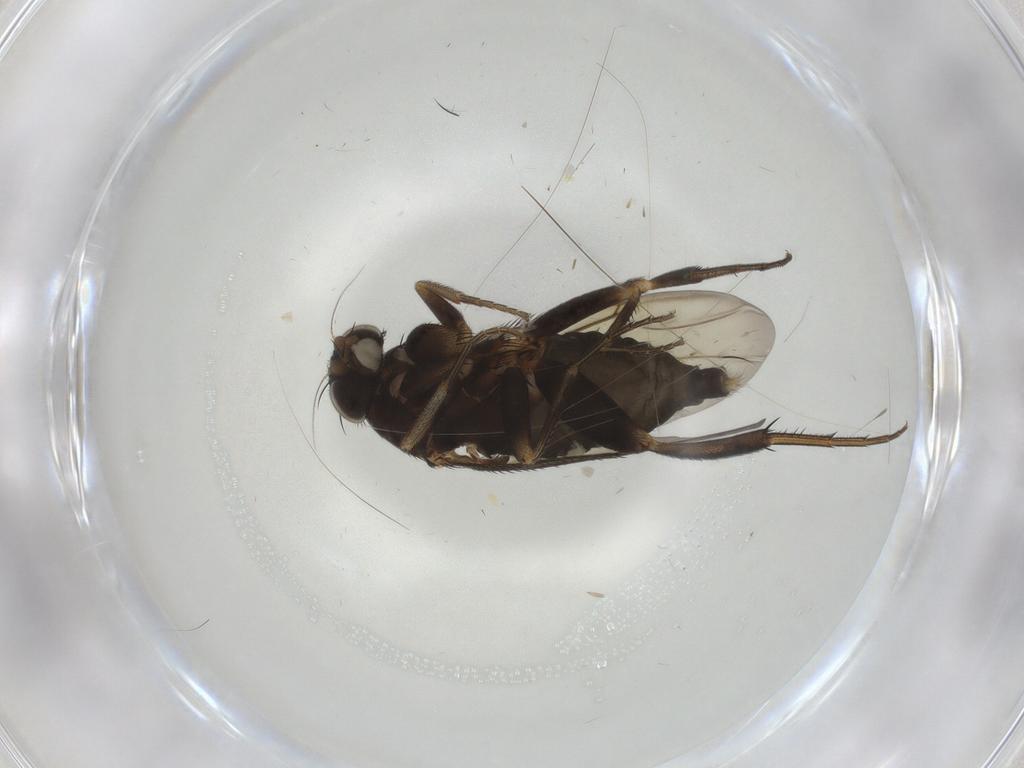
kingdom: Animalia
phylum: Arthropoda
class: Insecta
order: Diptera
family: Phoridae
